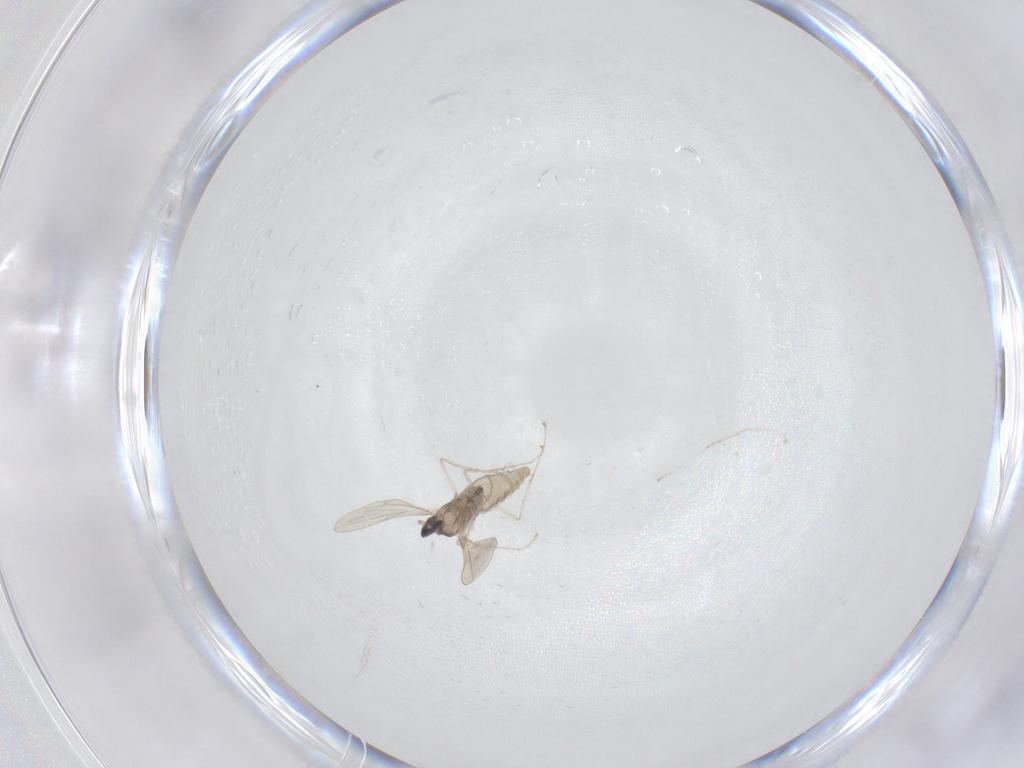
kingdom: Animalia
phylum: Arthropoda
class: Insecta
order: Diptera
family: Cecidomyiidae
